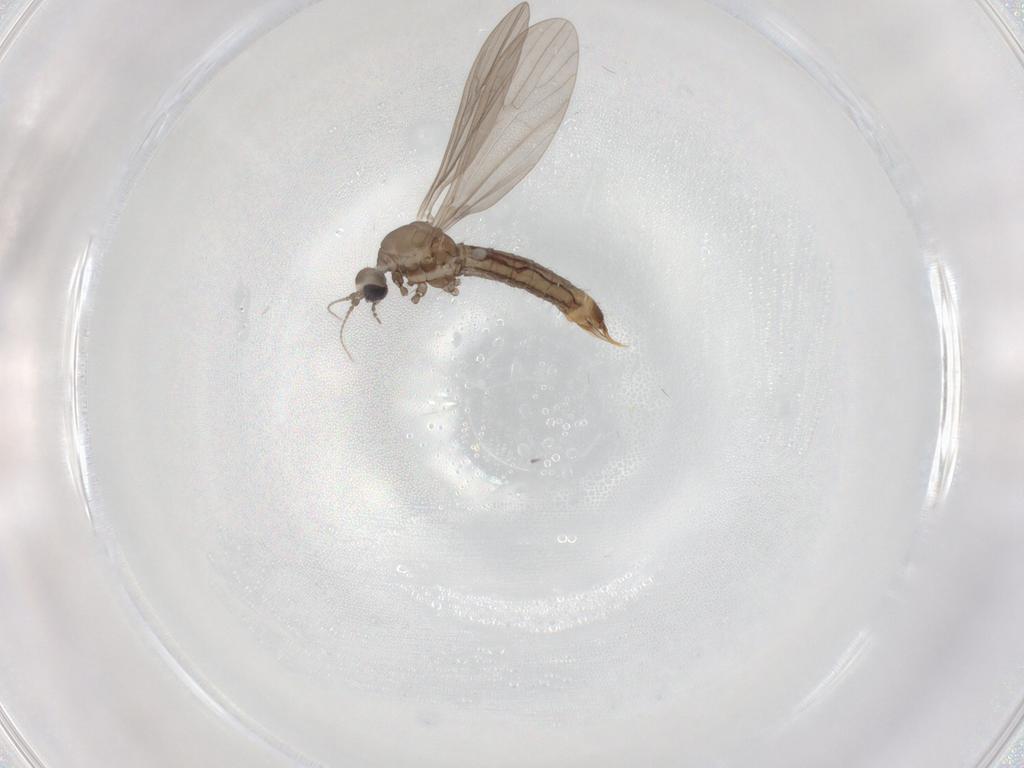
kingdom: Animalia
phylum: Arthropoda
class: Insecta
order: Diptera
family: Limoniidae
